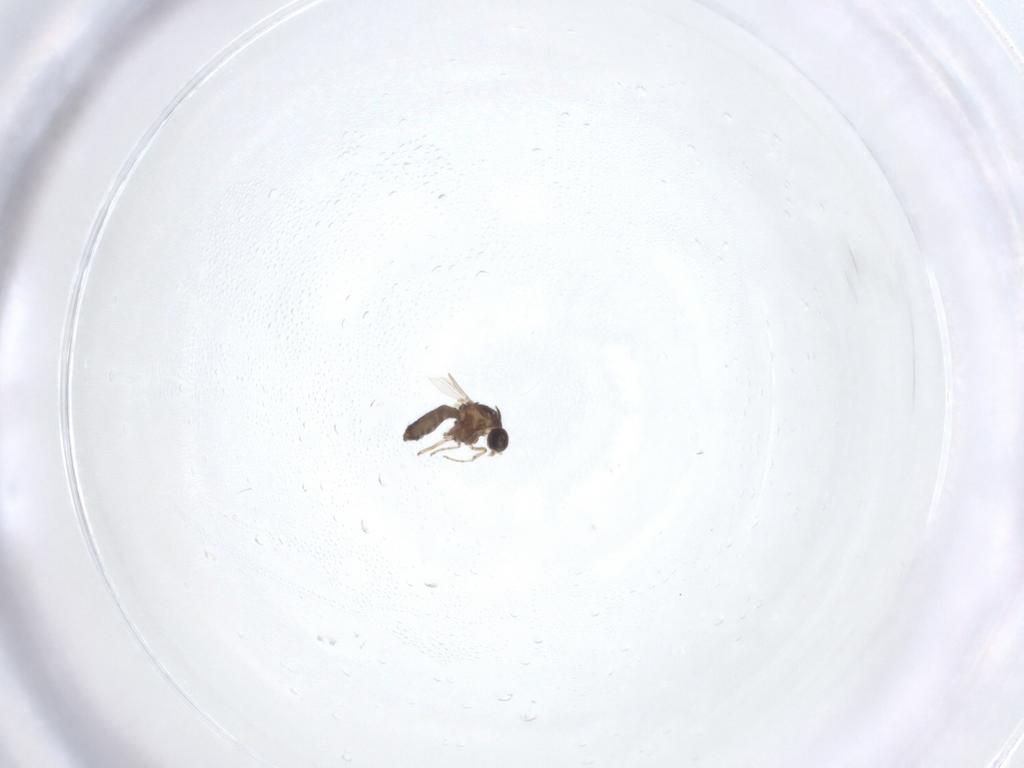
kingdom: Animalia
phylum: Arthropoda
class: Insecta
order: Diptera
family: Ceratopogonidae
